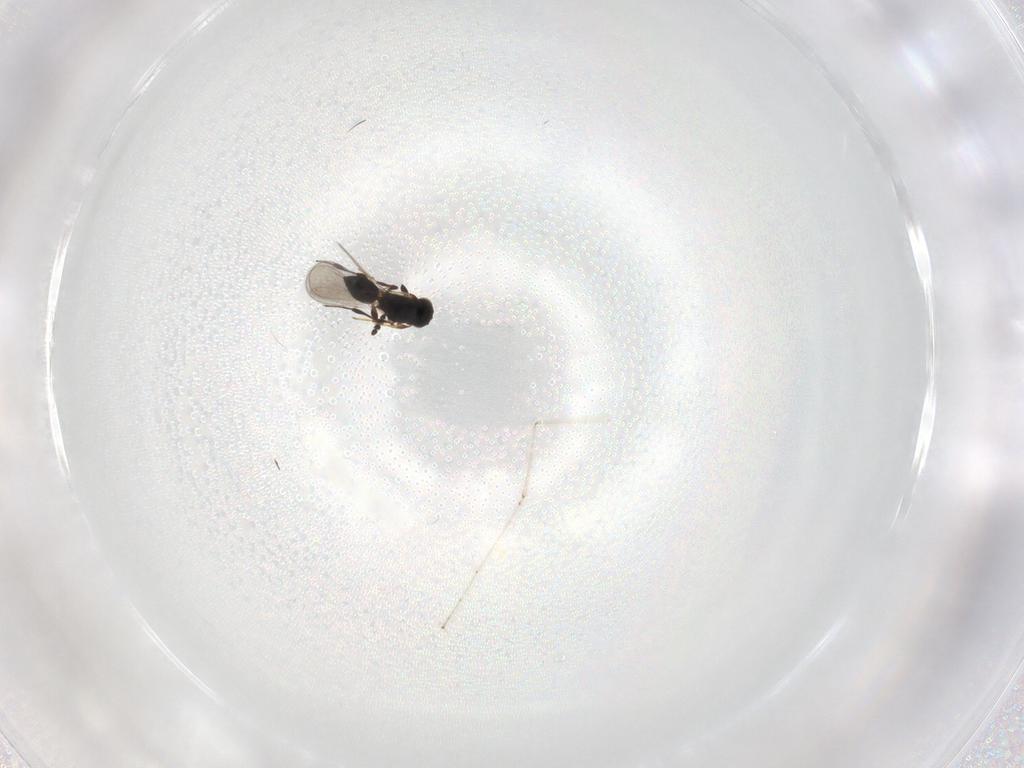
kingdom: Animalia
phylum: Arthropoda
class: Insecta
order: Hymenoptera
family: Platygastridae
